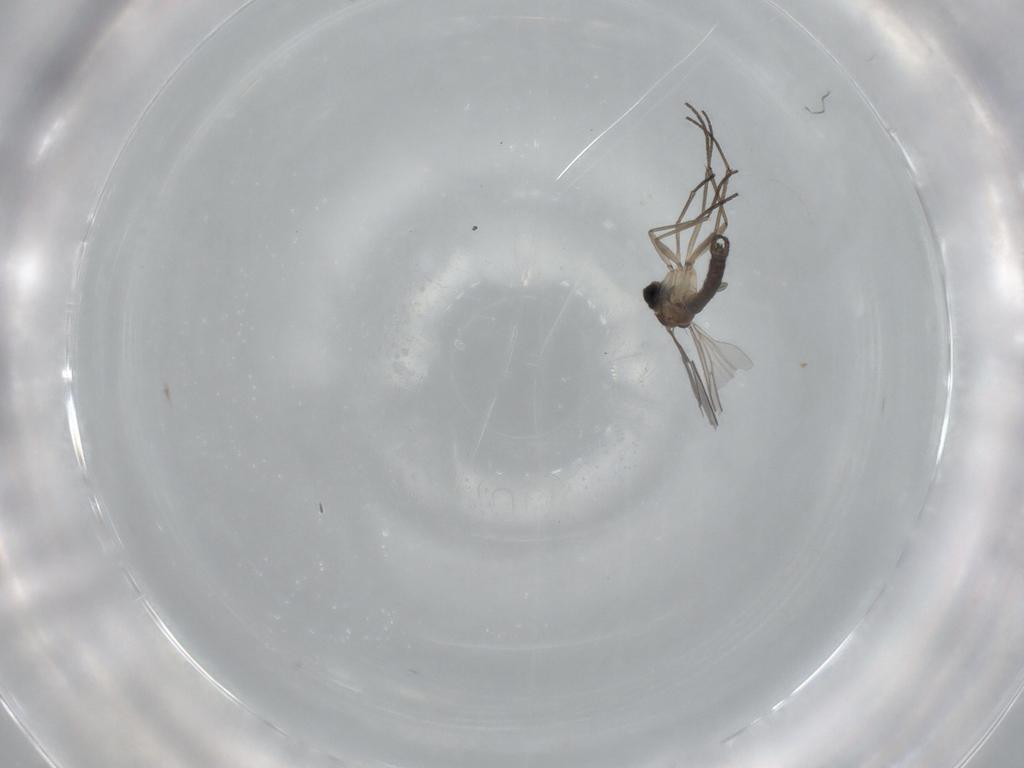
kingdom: Animalia
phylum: Arthropoda
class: Insecta
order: Diptera
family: Sciaridae
